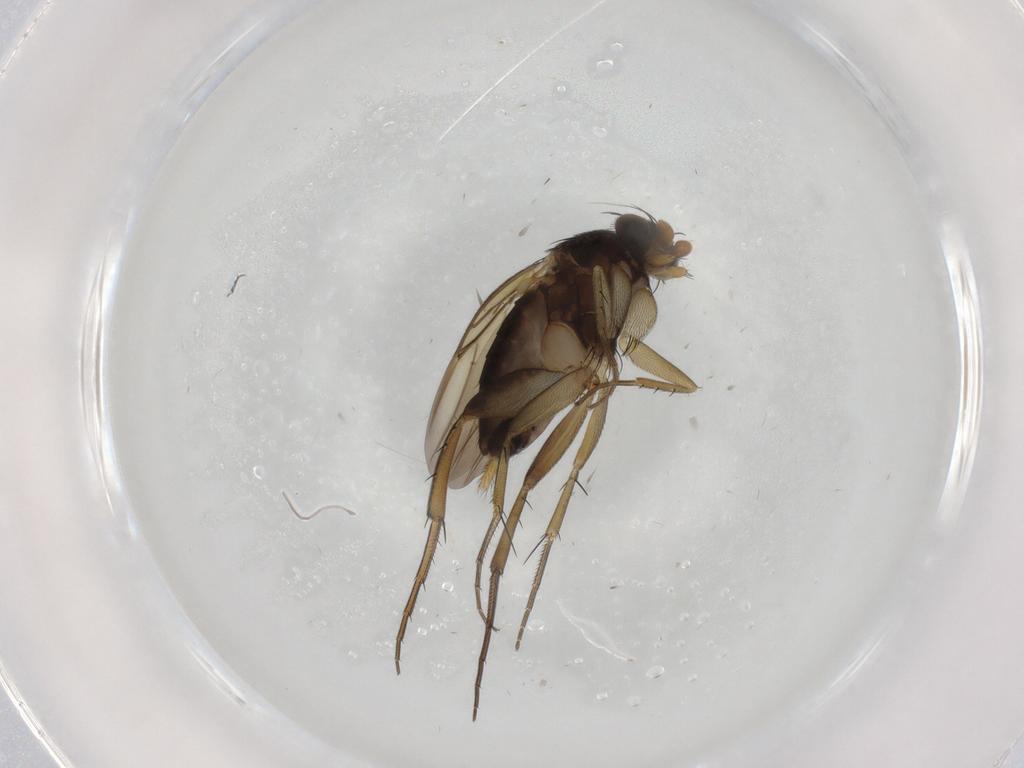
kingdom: Animalia
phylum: Arthropoda
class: Insecta
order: Diptera
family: Phoridae
